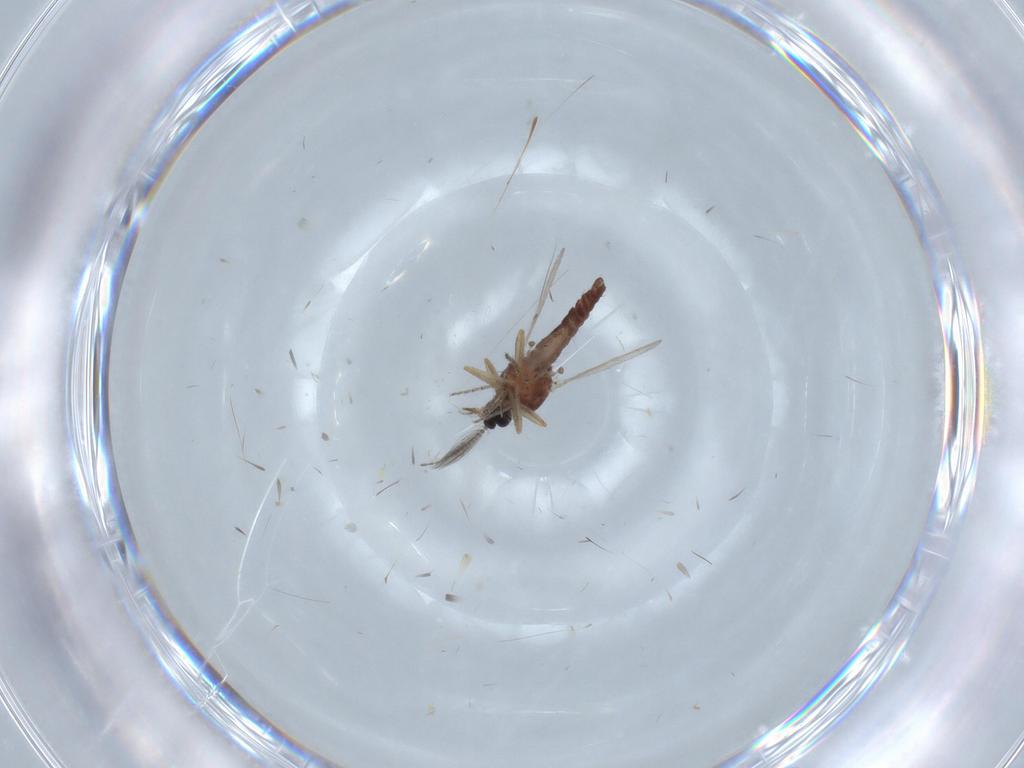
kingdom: Animalia
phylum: Arthropoda
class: Insecta
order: Diptera
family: Ceratopogonidae
